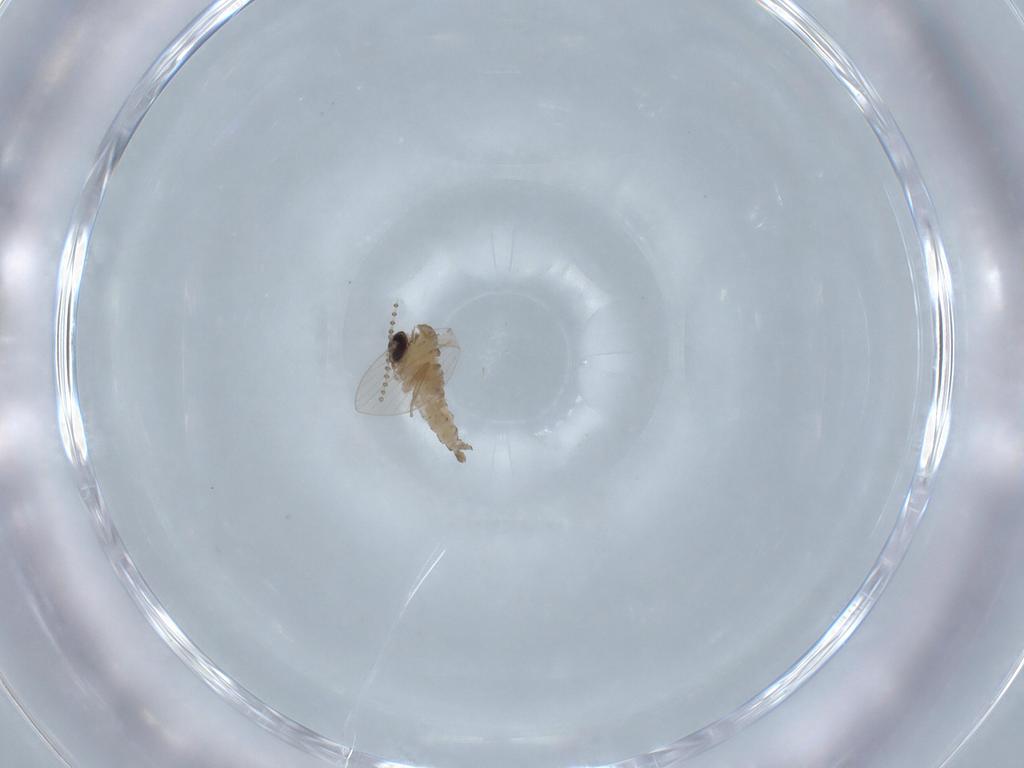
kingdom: Animalia
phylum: Arthropoda
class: Insecta
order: Diptera
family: Psychodidae
